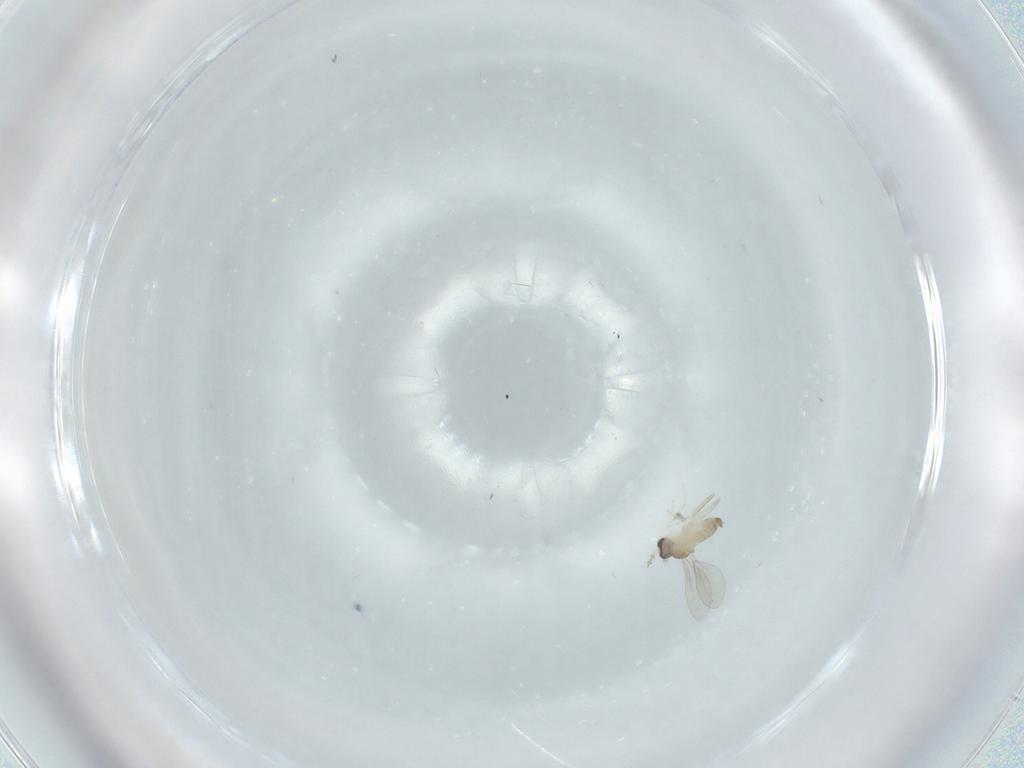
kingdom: Animalia
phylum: Arthropoda
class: Insecta
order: Diptera
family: Cecidomyiidae
